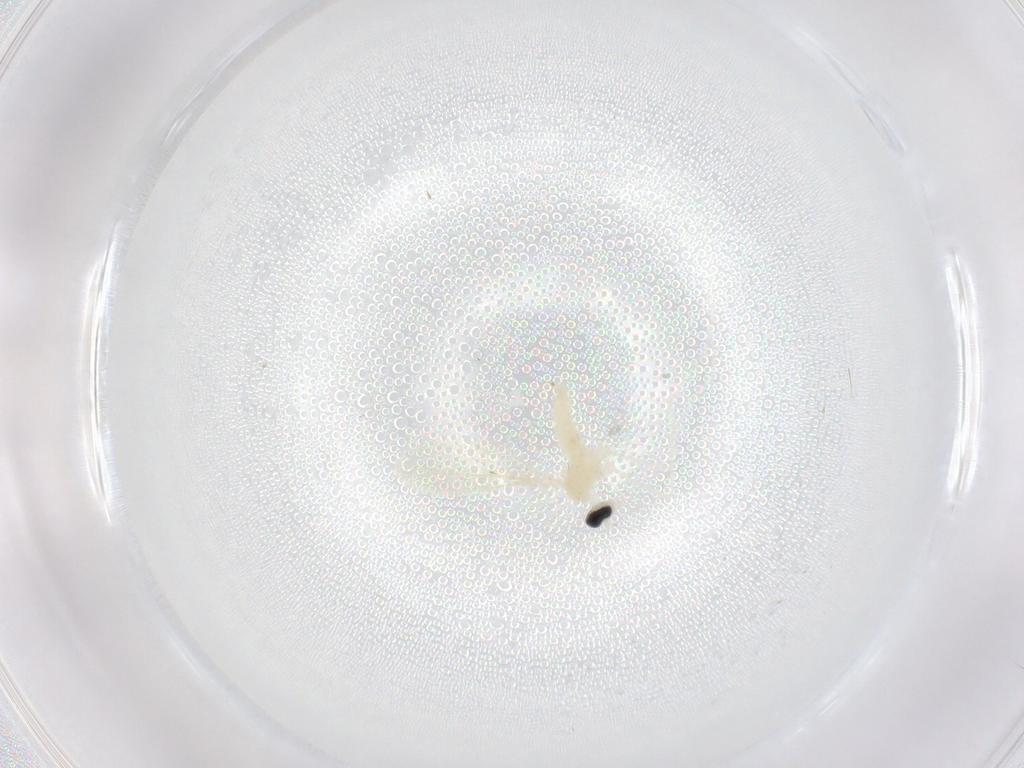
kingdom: Animalia
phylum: Arthropoda
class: Insecta
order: Diptera
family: Cecidomyiidae
